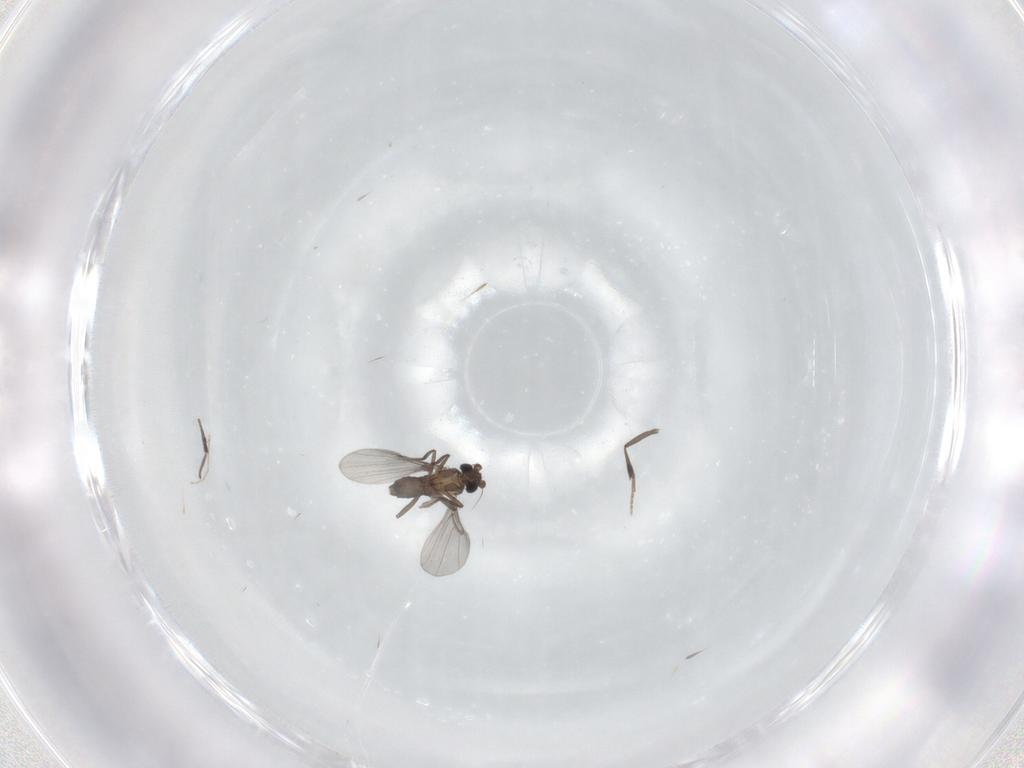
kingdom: Animalia
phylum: Arthropoda
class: Insecta
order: Diptera
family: Phoridae
